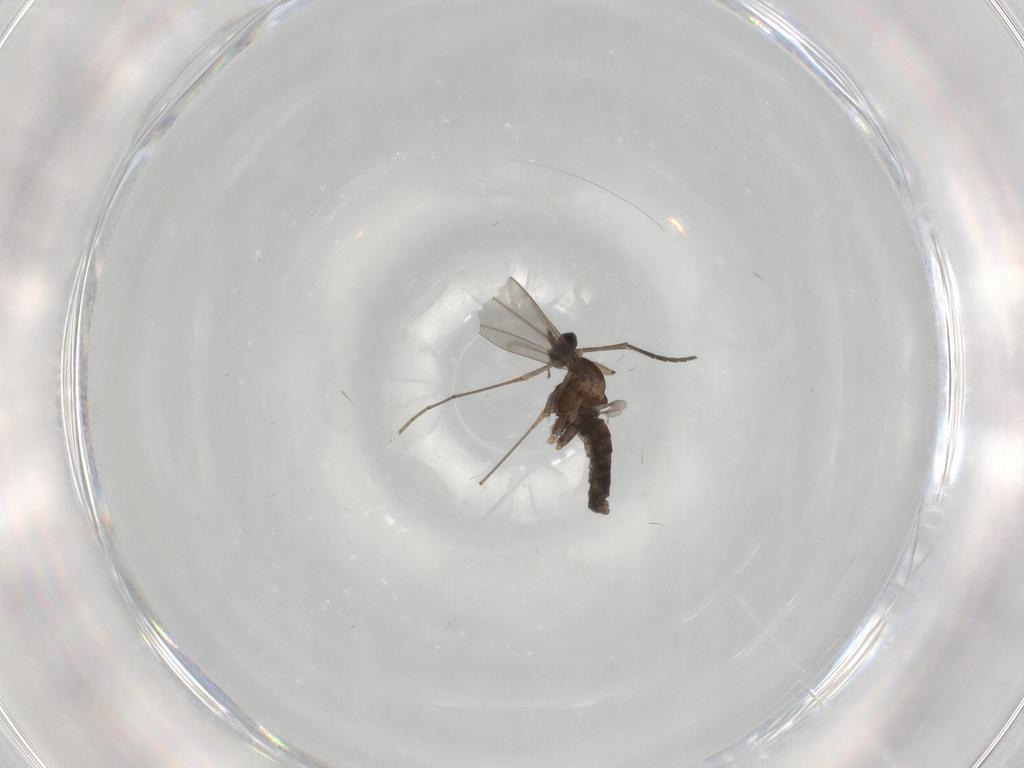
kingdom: Animalia
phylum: Arthropoda
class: Insecta
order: Diptera
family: Sciaridae
